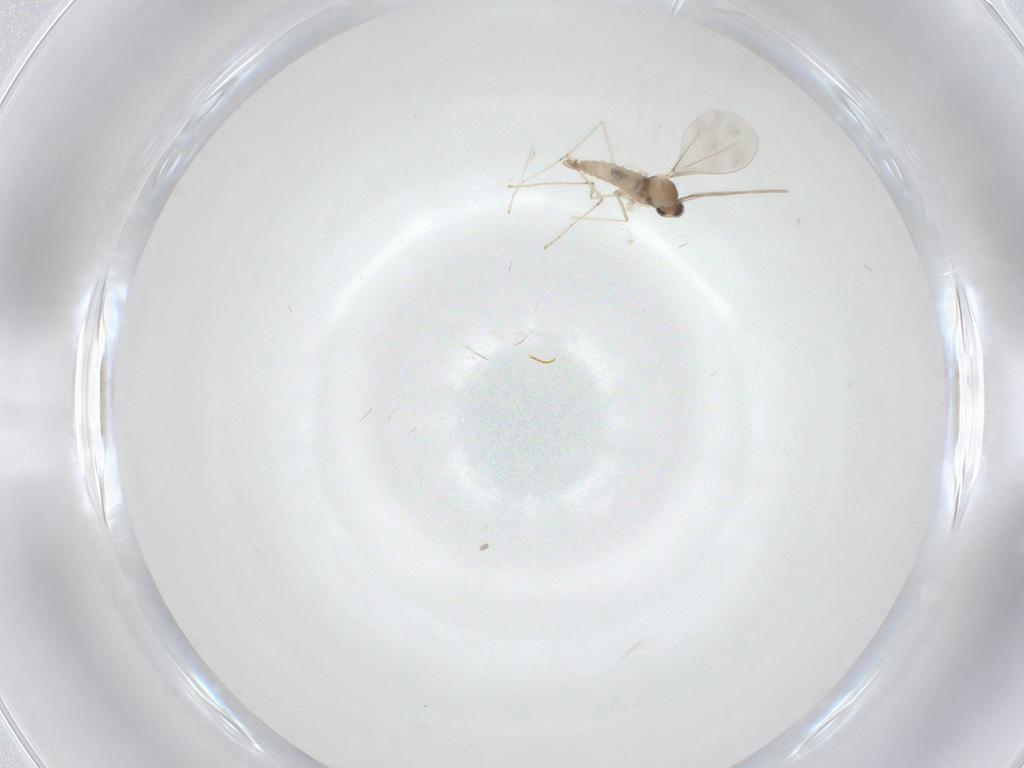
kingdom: Animalia
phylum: Arthropoda
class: Insecta
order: Diptera
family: Cecidomyiidae
